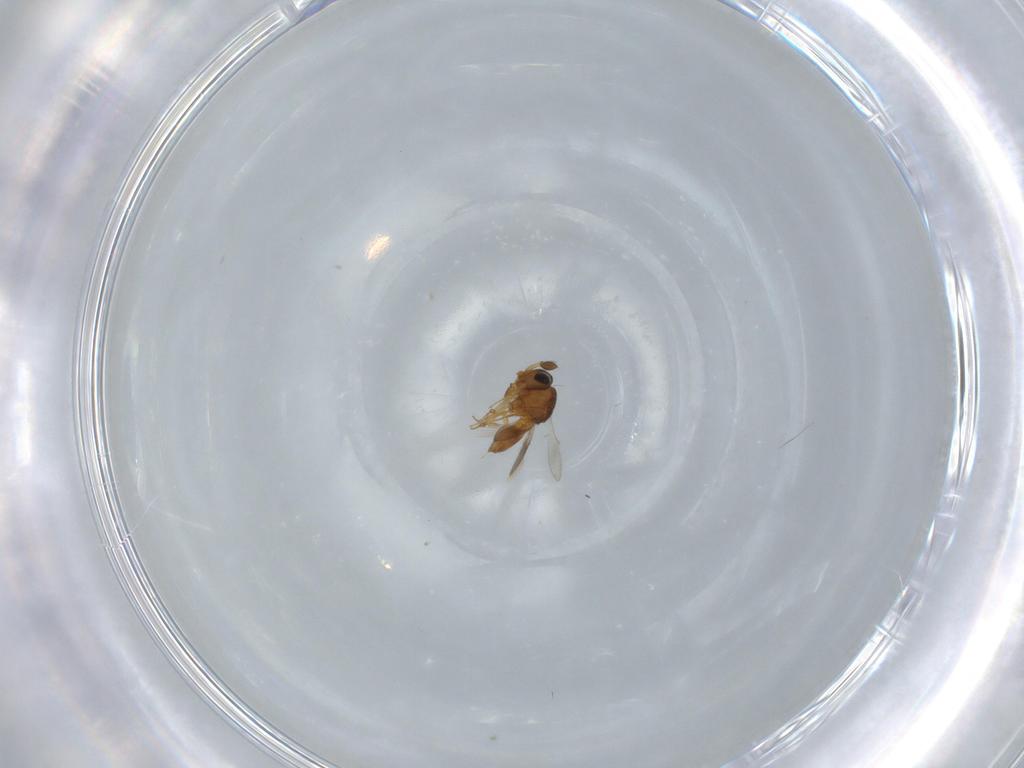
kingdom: Animalia
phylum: Arthropoda
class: Insecta
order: Hymenoptera
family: Scelionidae
